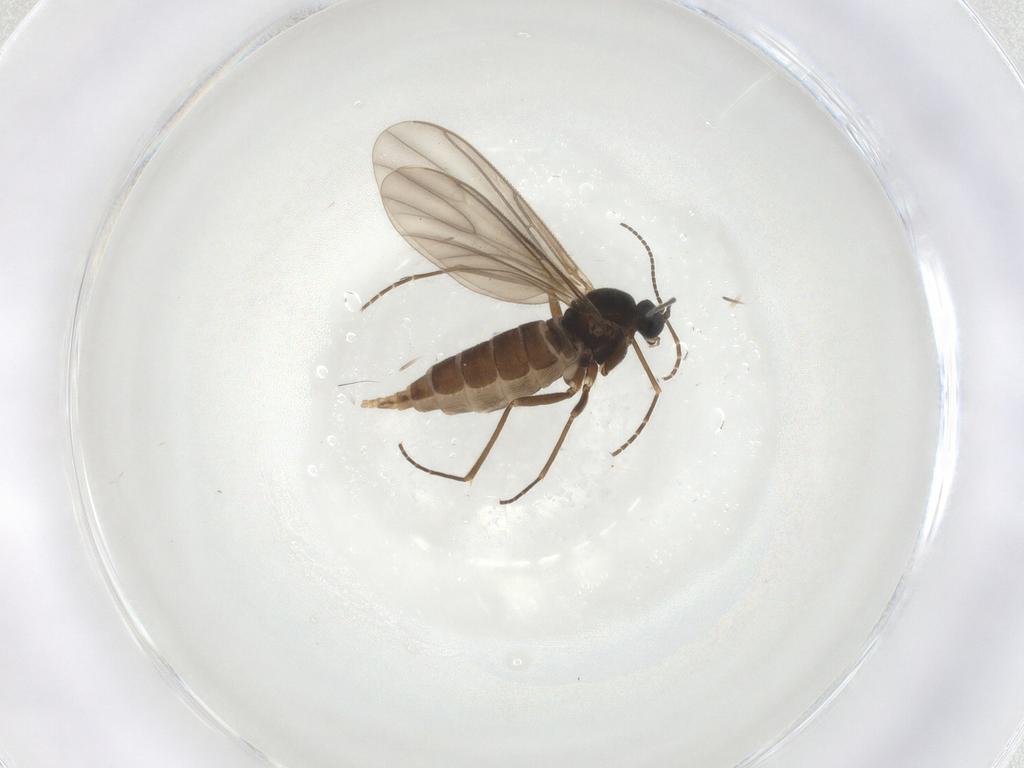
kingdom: Animalia
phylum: Arthropoda
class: Insecta
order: Diptera
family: Sciaridae
